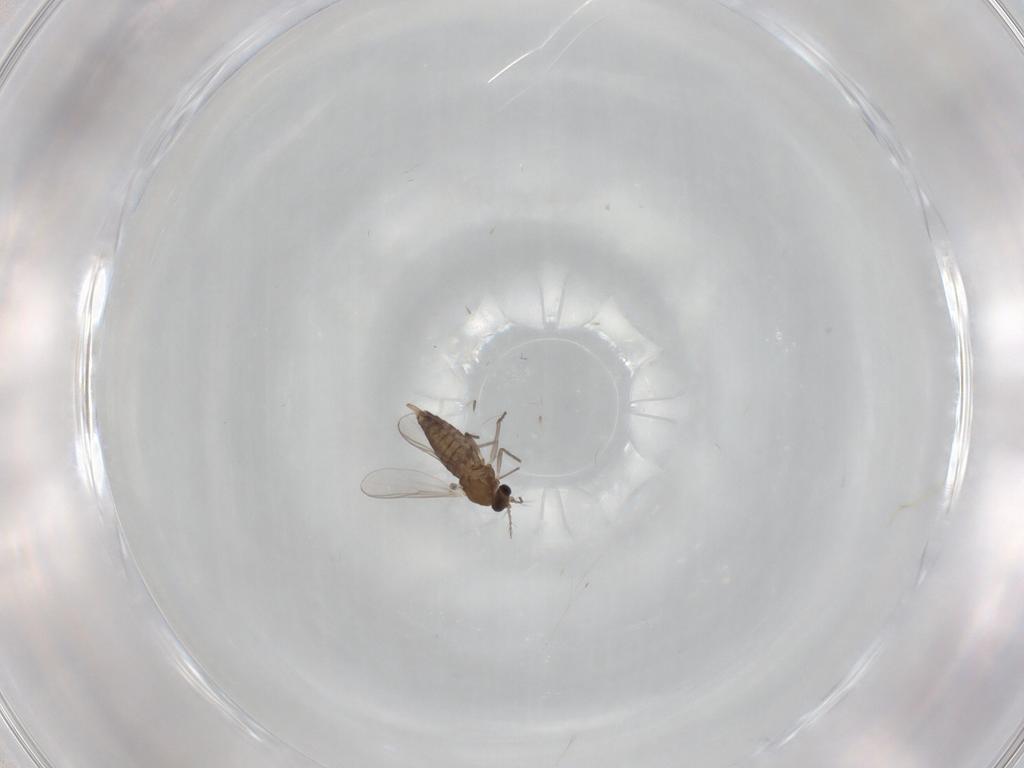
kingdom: Animalia
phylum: Arthropoda
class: Insecta
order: Diptera
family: Chironomidae
